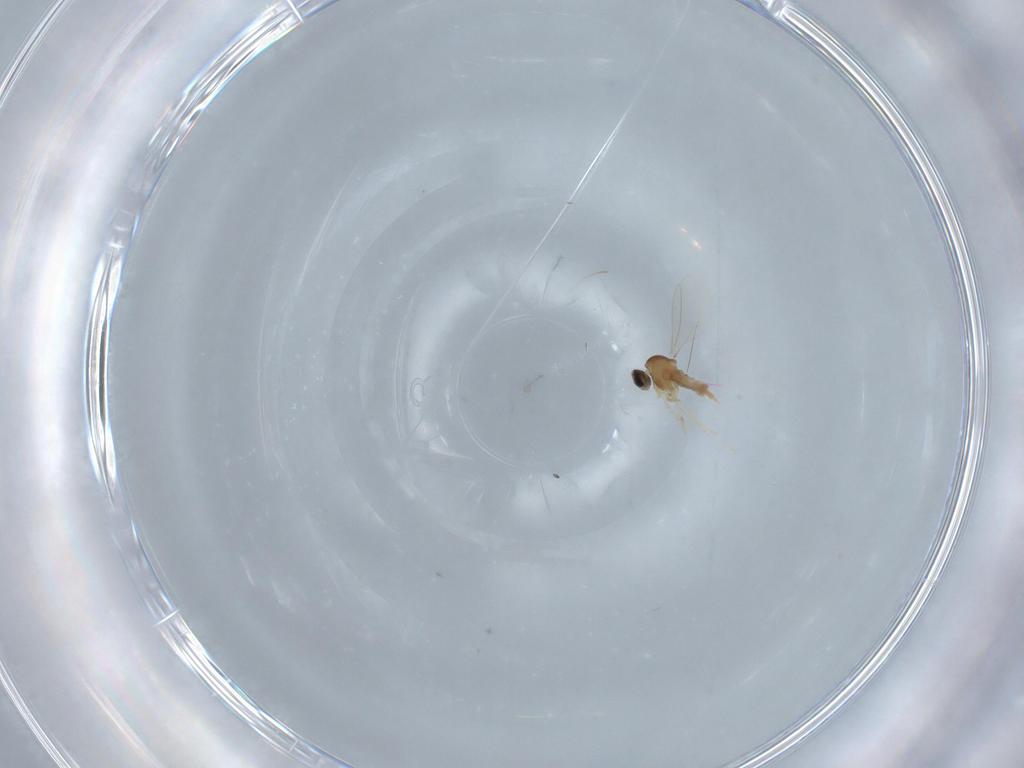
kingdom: Animalia
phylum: Arthropoda
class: Insecta
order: Diptera
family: Cecidomyiidae
